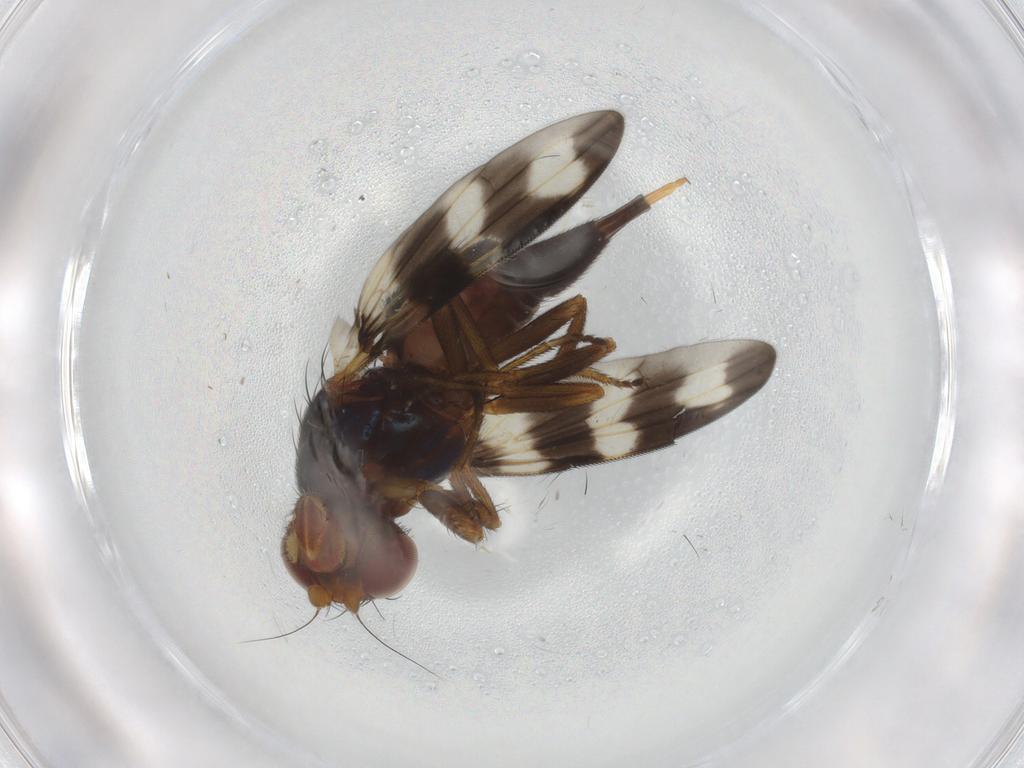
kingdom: Animalia
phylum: Arthropoda
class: Insecta
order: Diptera
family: Ulidiidae
